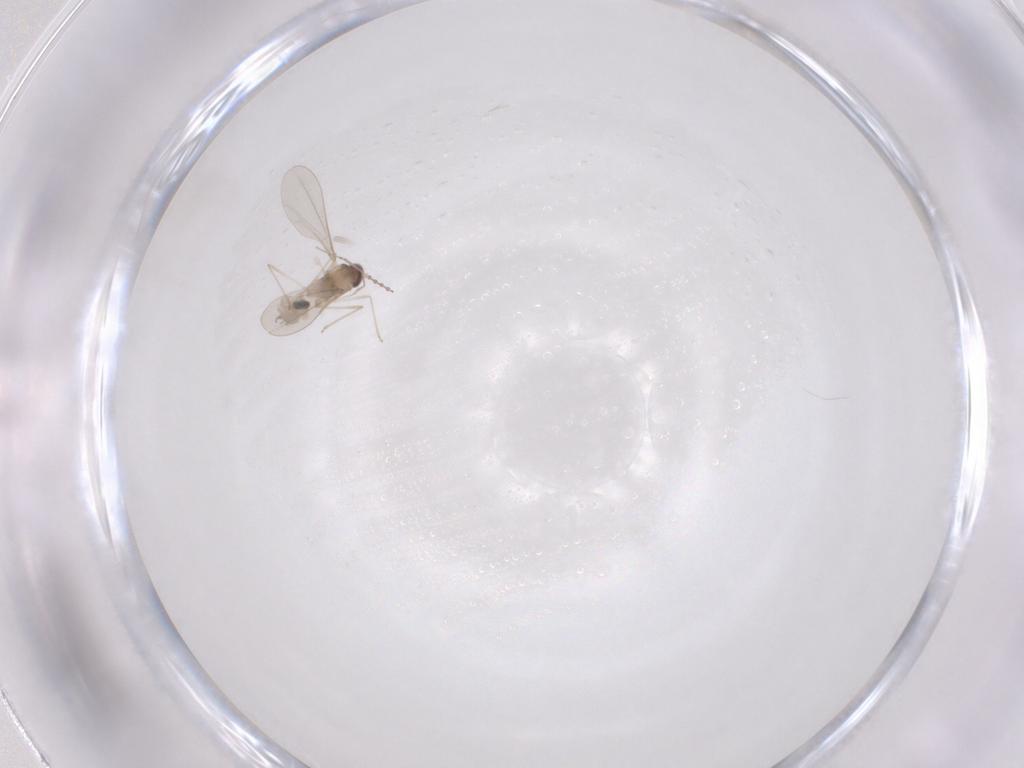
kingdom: Animalia
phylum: Arthropoda
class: Insecta
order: Diptera
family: Cecidomyiidae
